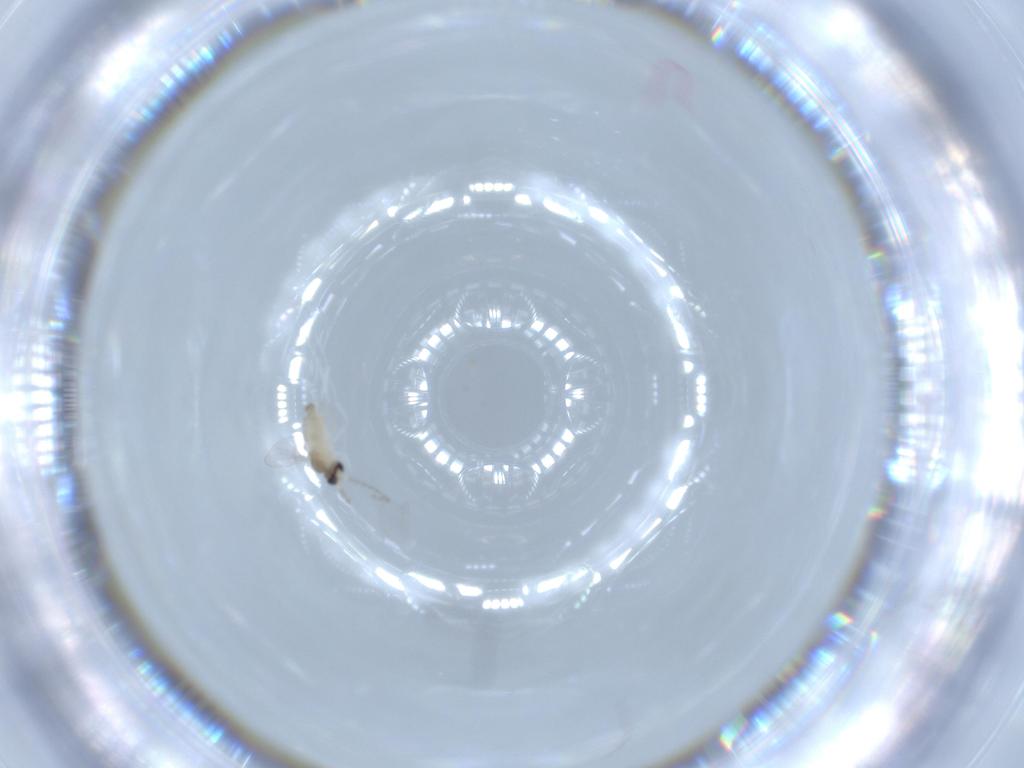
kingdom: Animalia
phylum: Arthropoda
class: Insecta
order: Diptera
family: Cecidomyiidae
